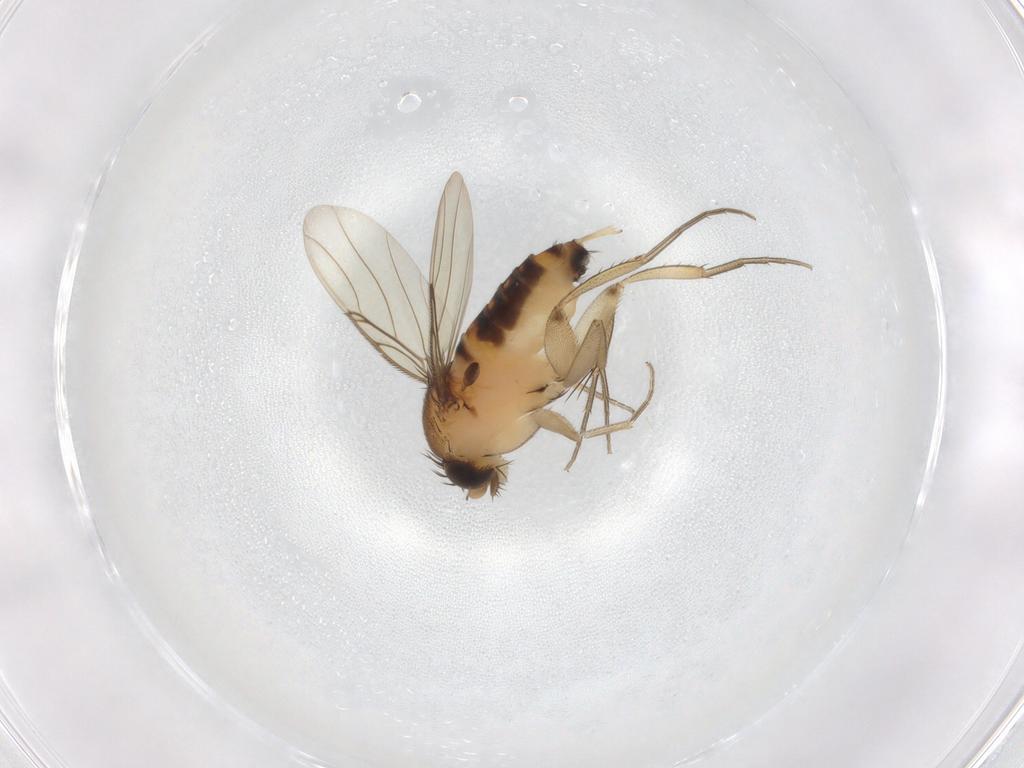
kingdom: Animalia
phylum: Arthropoda
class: Insecta
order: Diptera
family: Phoridae
